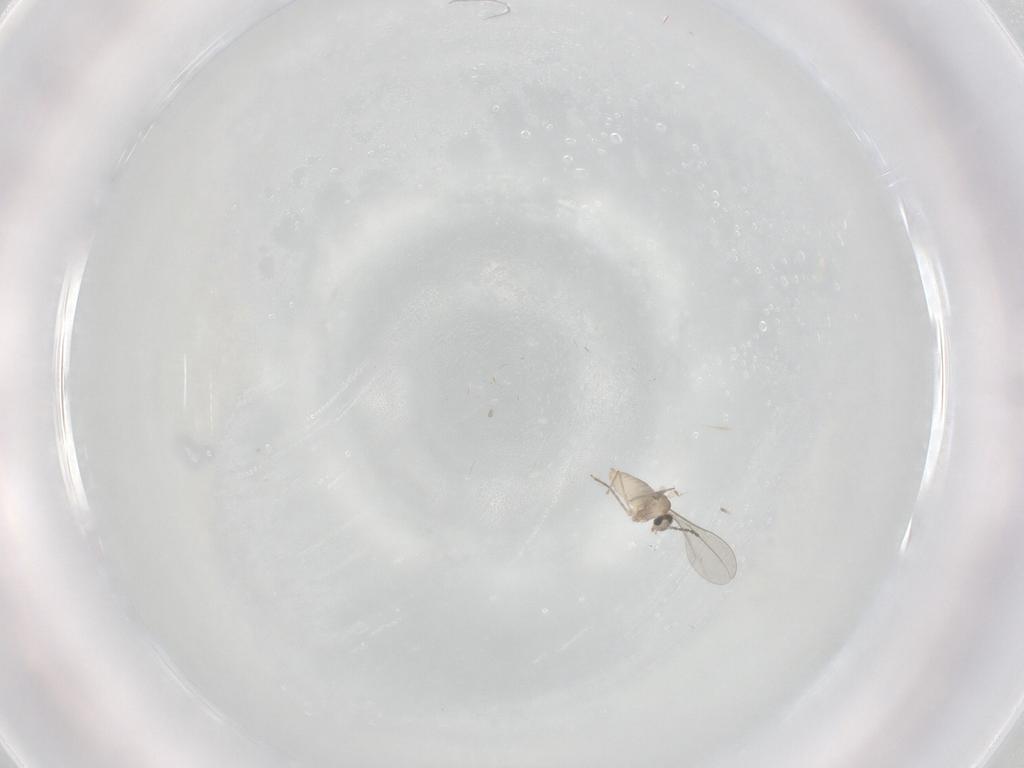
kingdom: Animalia
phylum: Arthropoda
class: Insecta
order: Diptera
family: Cecidomyiidae
